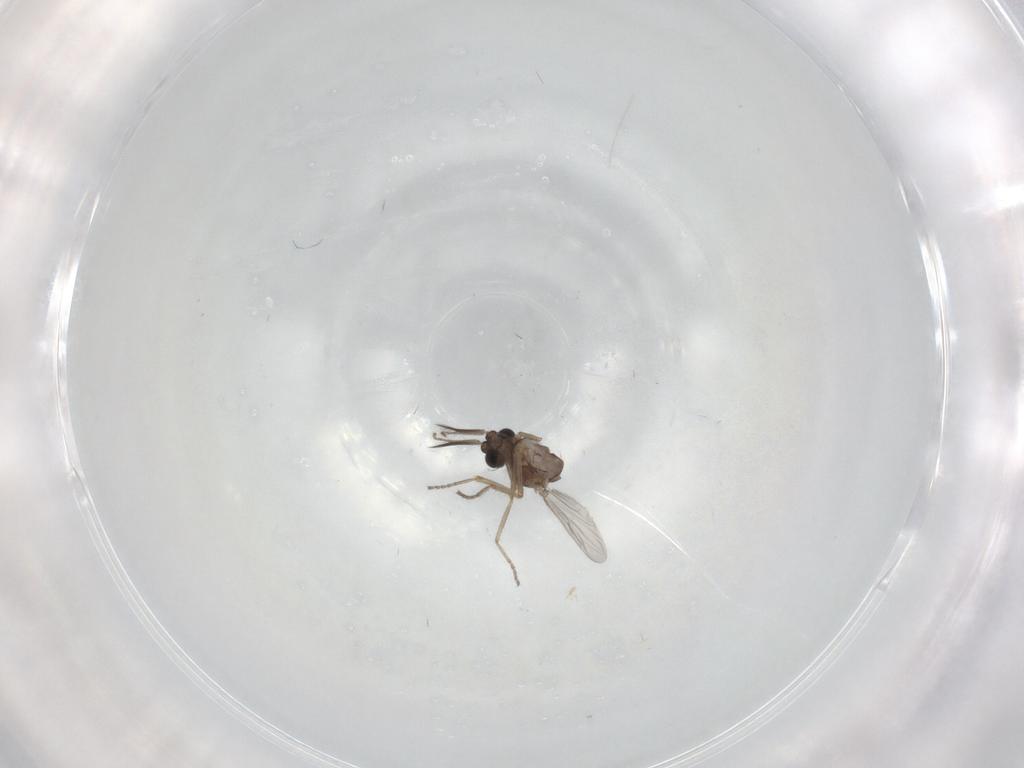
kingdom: Animalia
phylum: Arthropoda
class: Insecta
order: Diptera
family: Ceratopogonidae
